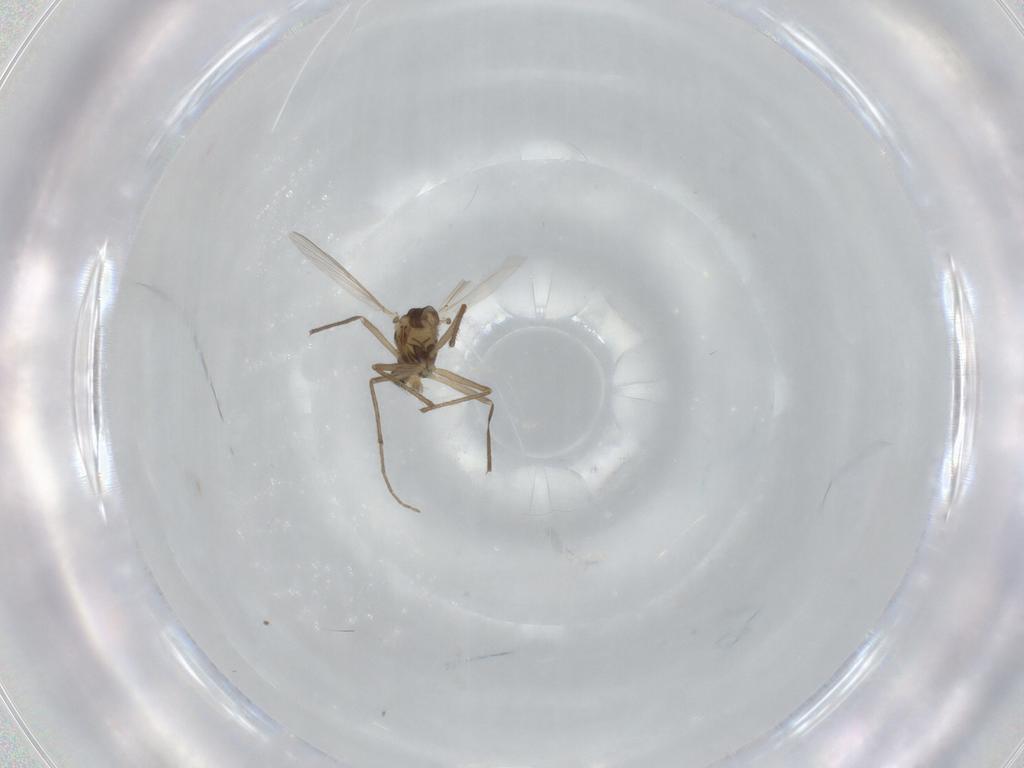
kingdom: Animalia
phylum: Arthropoda
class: Insecta
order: Diptera
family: Chironomidae
